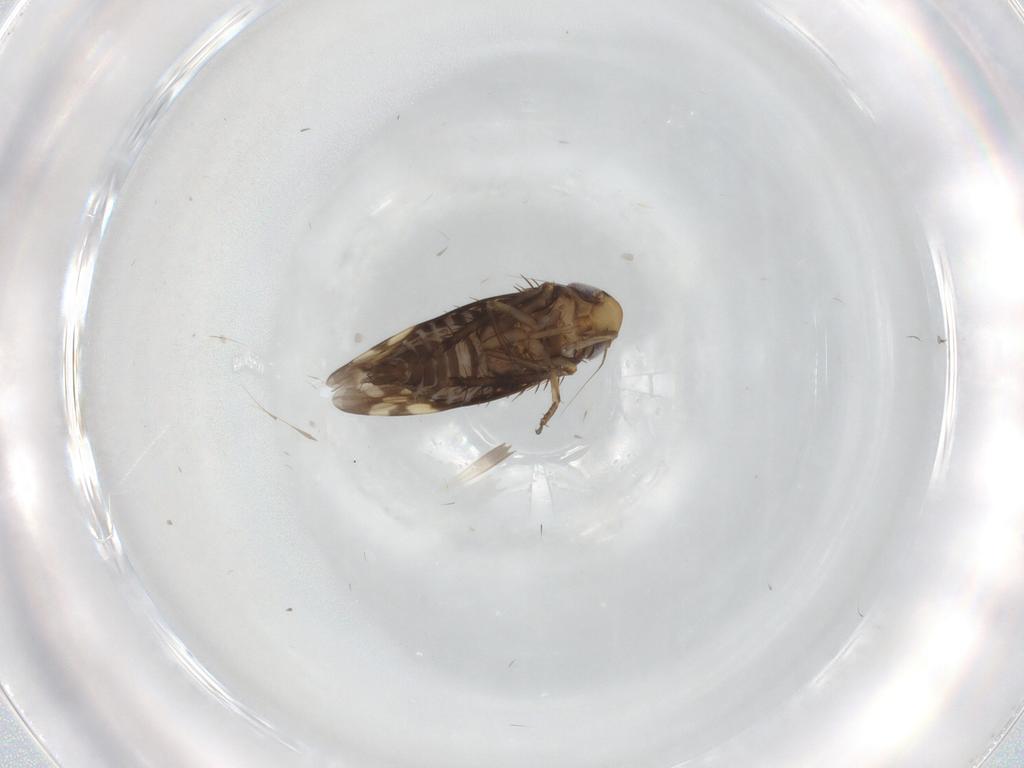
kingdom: Animalia
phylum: Arthropoda
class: Insecta
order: Hemiptera
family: Cicadellidae
